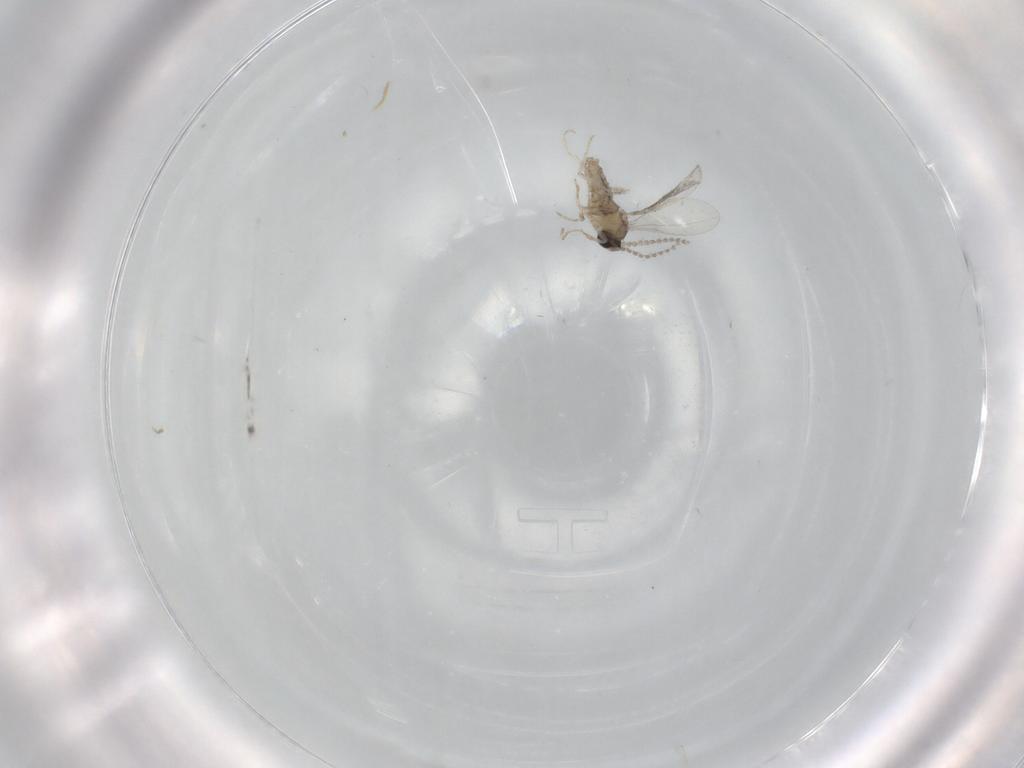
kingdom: Animalia
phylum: Arthropoda
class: Insecta
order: Diptera
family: Cecidomyiidae
